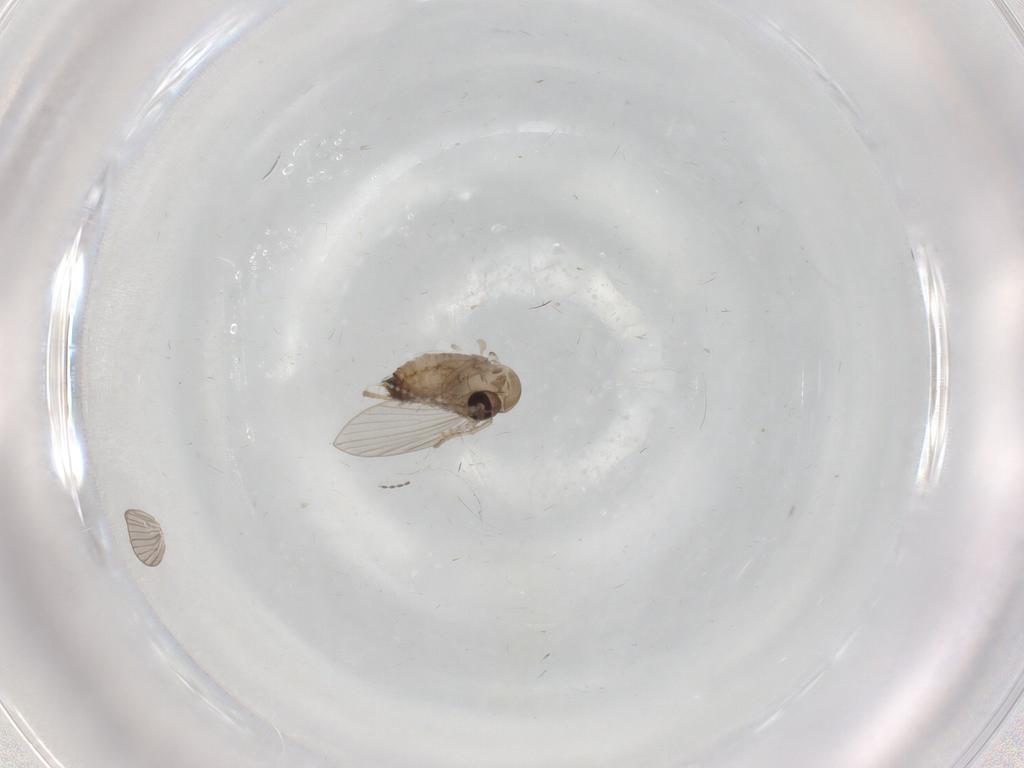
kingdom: Animalia
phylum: Arthropoda
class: Insecta
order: Diptera
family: Psychodidae
